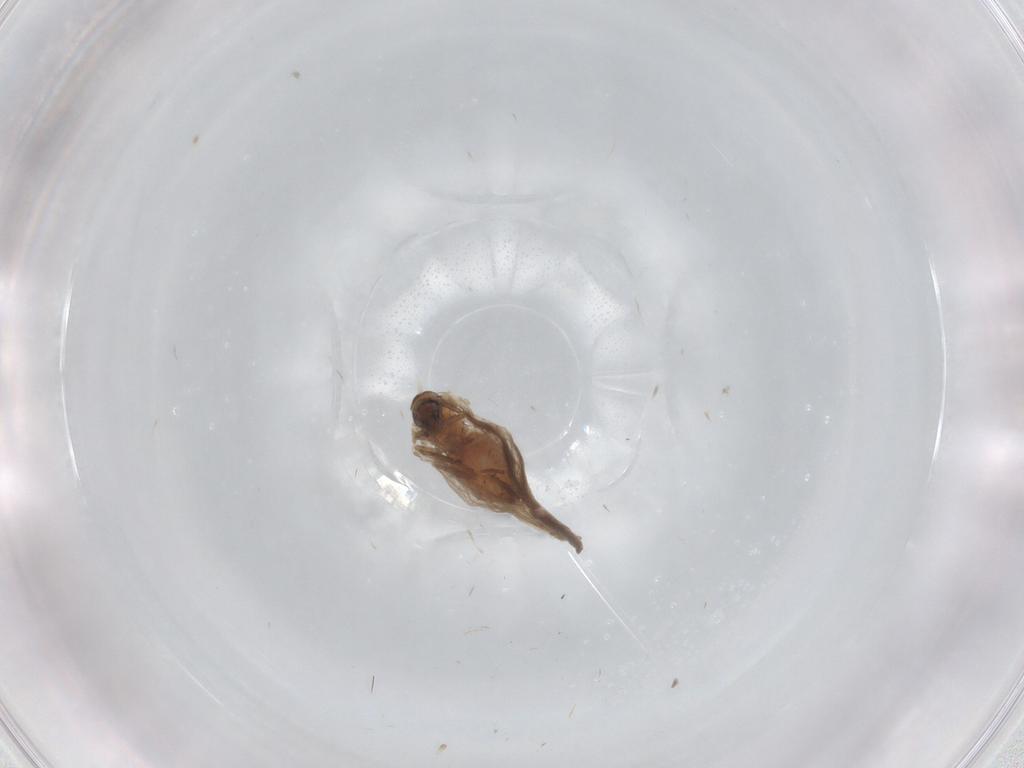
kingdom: Animalia
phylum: Arthropoda
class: Insecta
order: Diptera
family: Psychodidae
